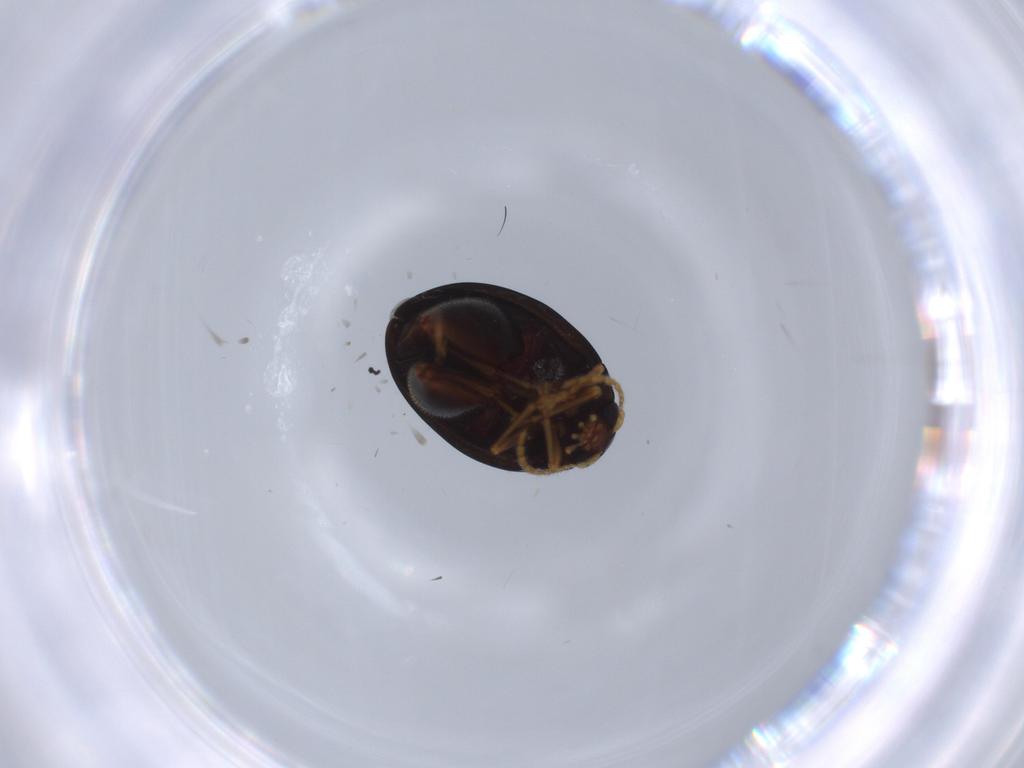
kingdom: Animalia
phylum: Arthropoda
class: Insecta
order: Coleoptera
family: Chrysomelidae
